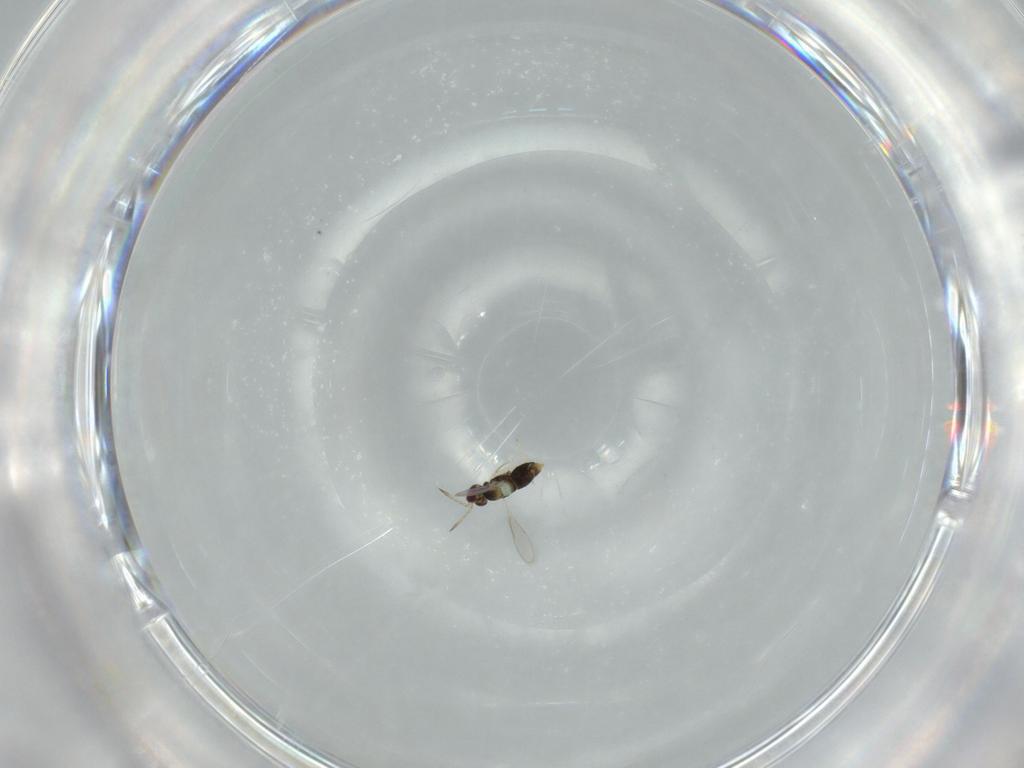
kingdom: Animalia
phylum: Arthropoda
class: Insecta
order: Hymenoptera
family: Aphelinidae
